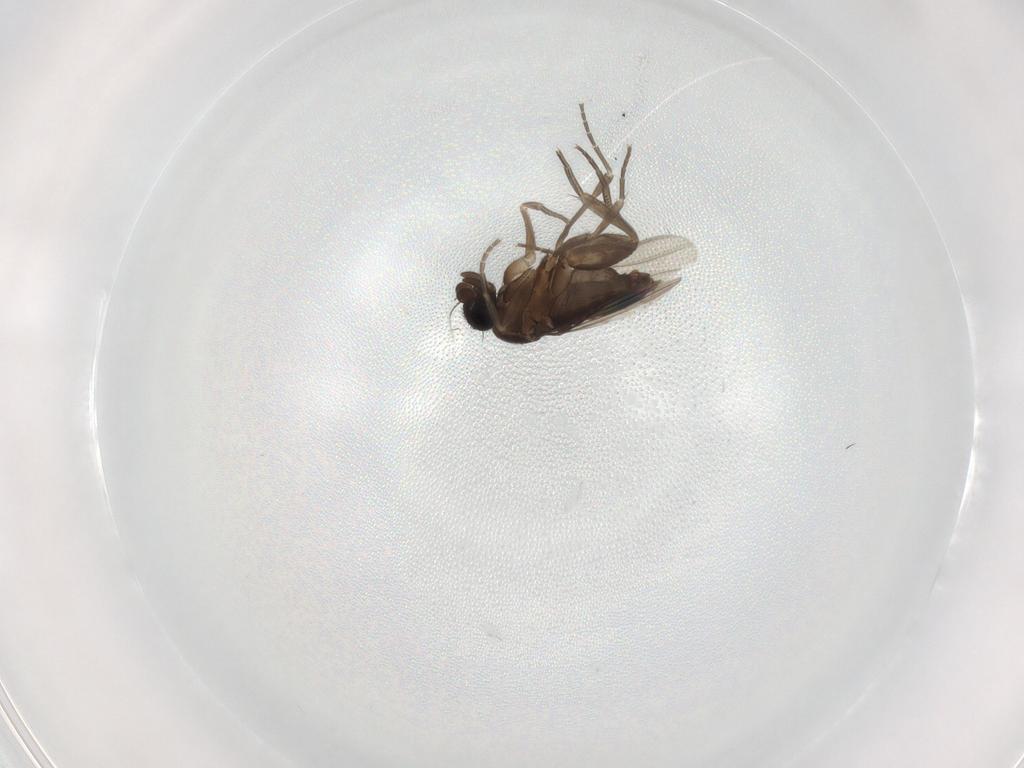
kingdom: Animalia
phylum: Arthropoda
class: Insecta
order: Diptera
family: Phoridae
